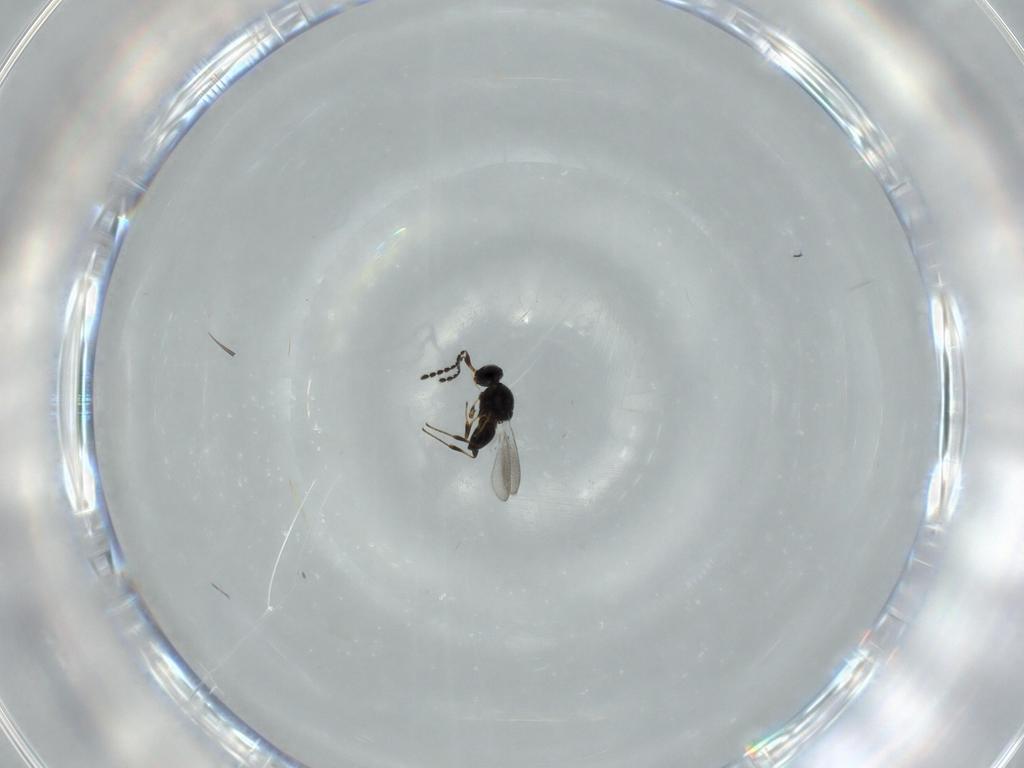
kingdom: Animalia
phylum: Arthropoda
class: Insecta
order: Hymenoptera
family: Platygastridae
